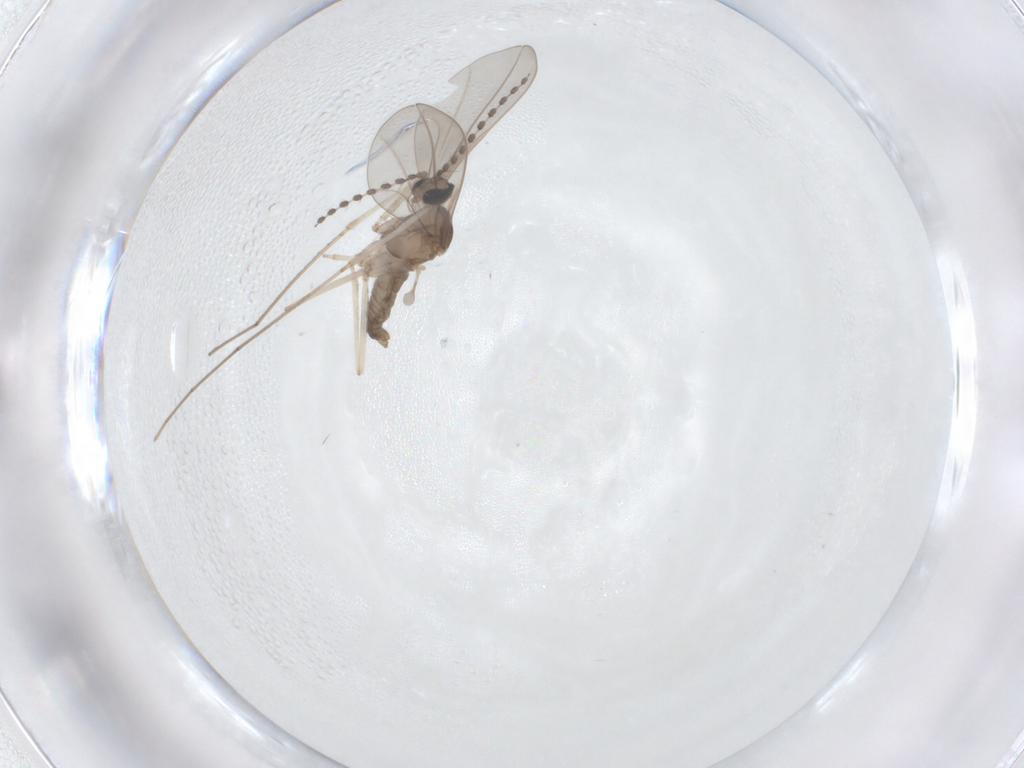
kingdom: Animalia
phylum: Arthropoda
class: Insecta
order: Diptera
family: Cecidomyiidae
